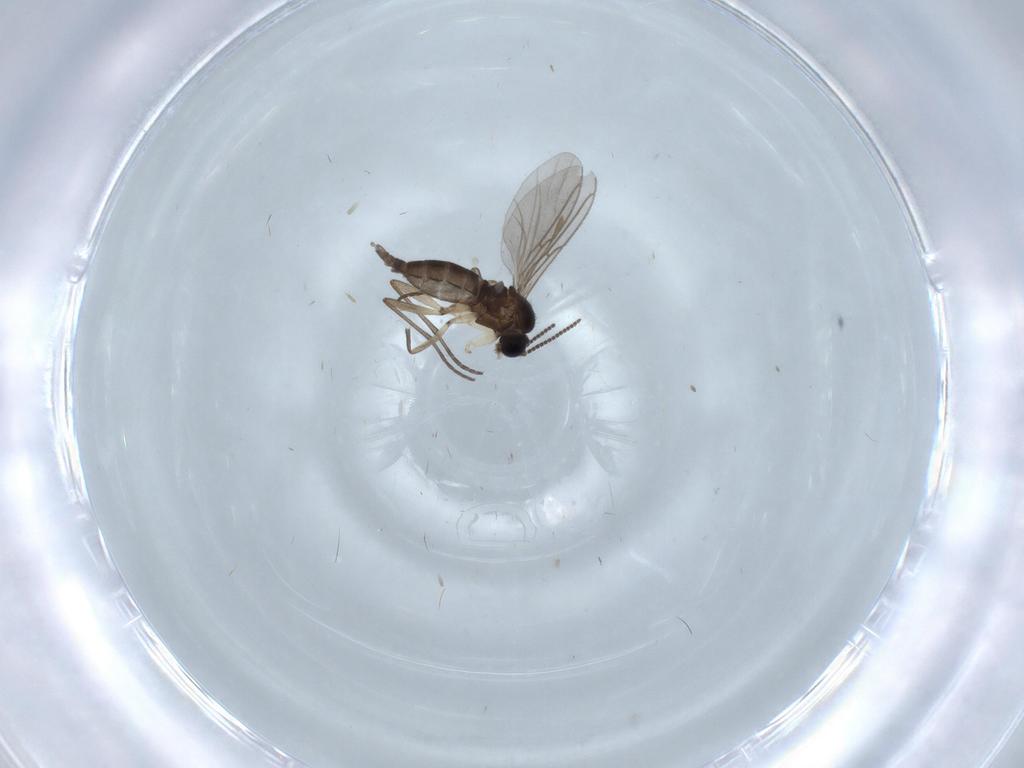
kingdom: Animalia
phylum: Arthropoda
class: Insecta
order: Diptera
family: Sciaridae
